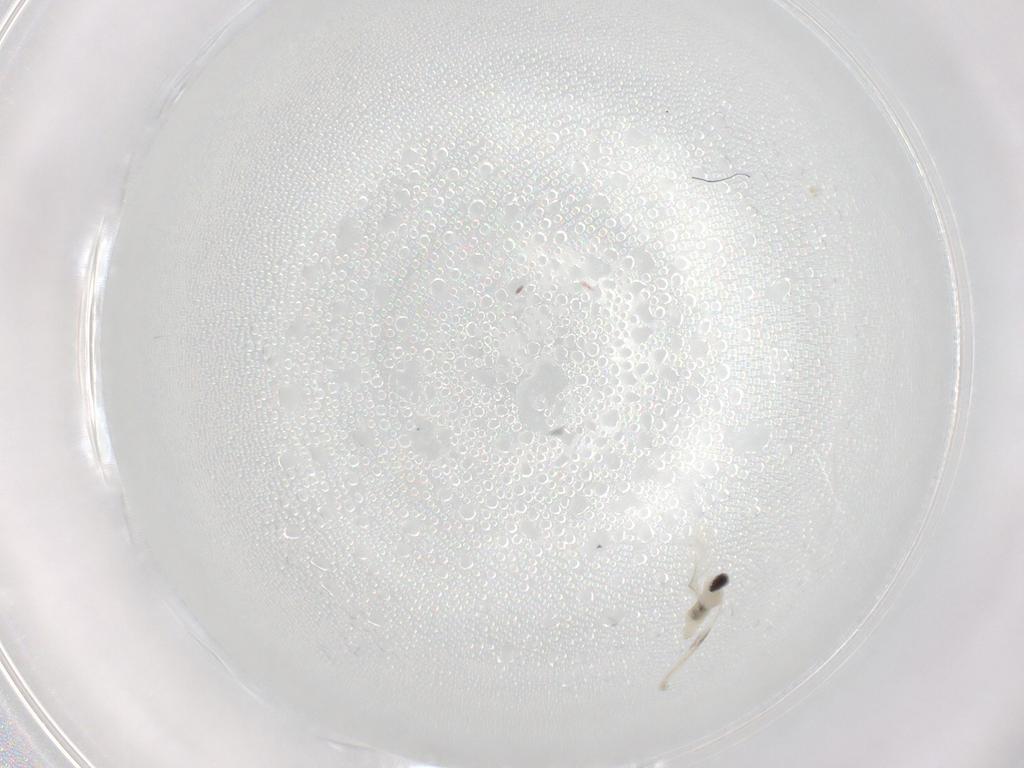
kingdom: Animalia
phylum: Arthropoda
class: Insecta
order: Diptera
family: Cecidomyiidae
